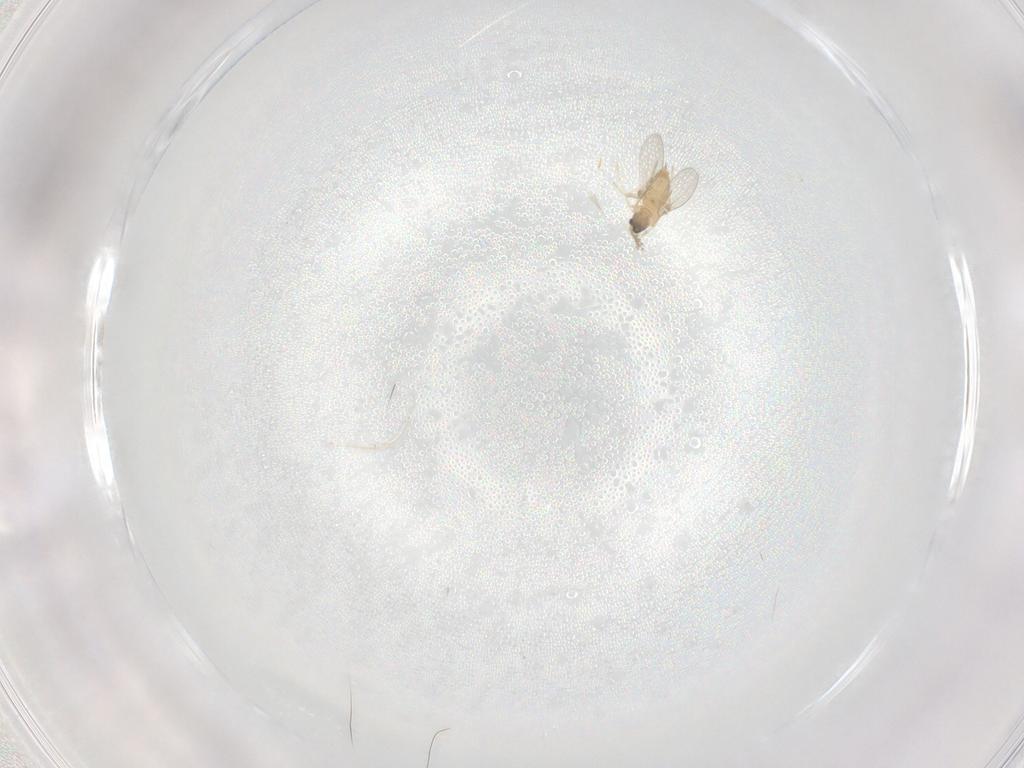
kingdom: Animalia
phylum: Arthropoda
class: Insecta
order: Diptera
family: Cecidomyiidae
